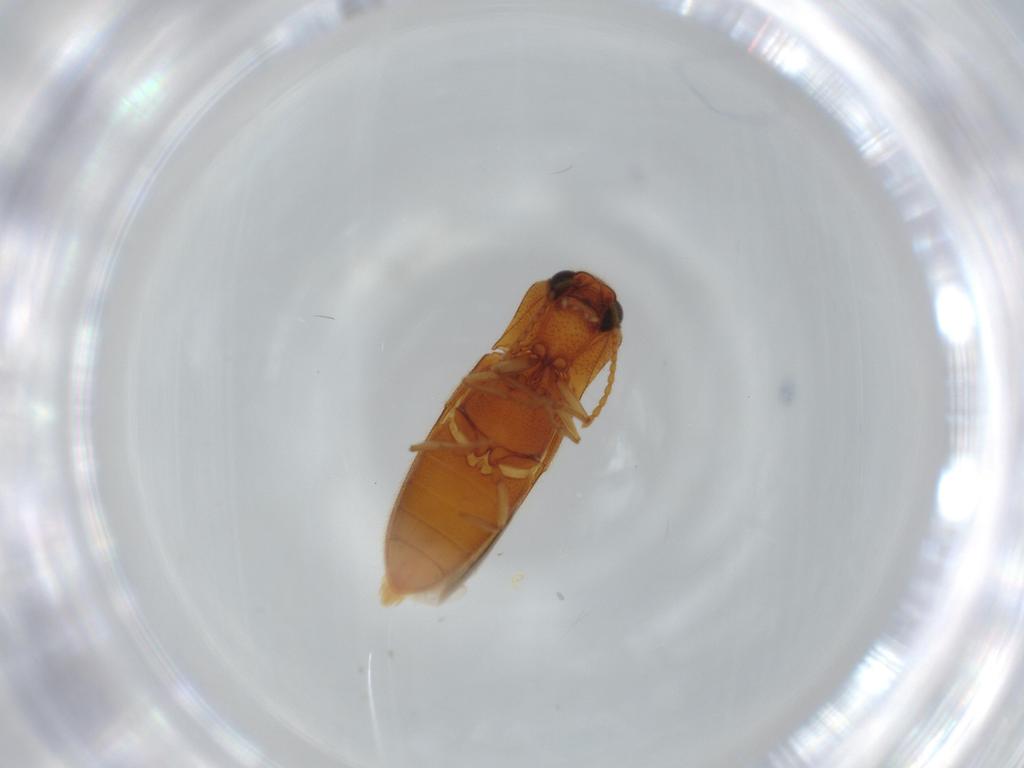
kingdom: Animalia
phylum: Arthropoda
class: Insecta
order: Coleoptera
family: Elateridae
